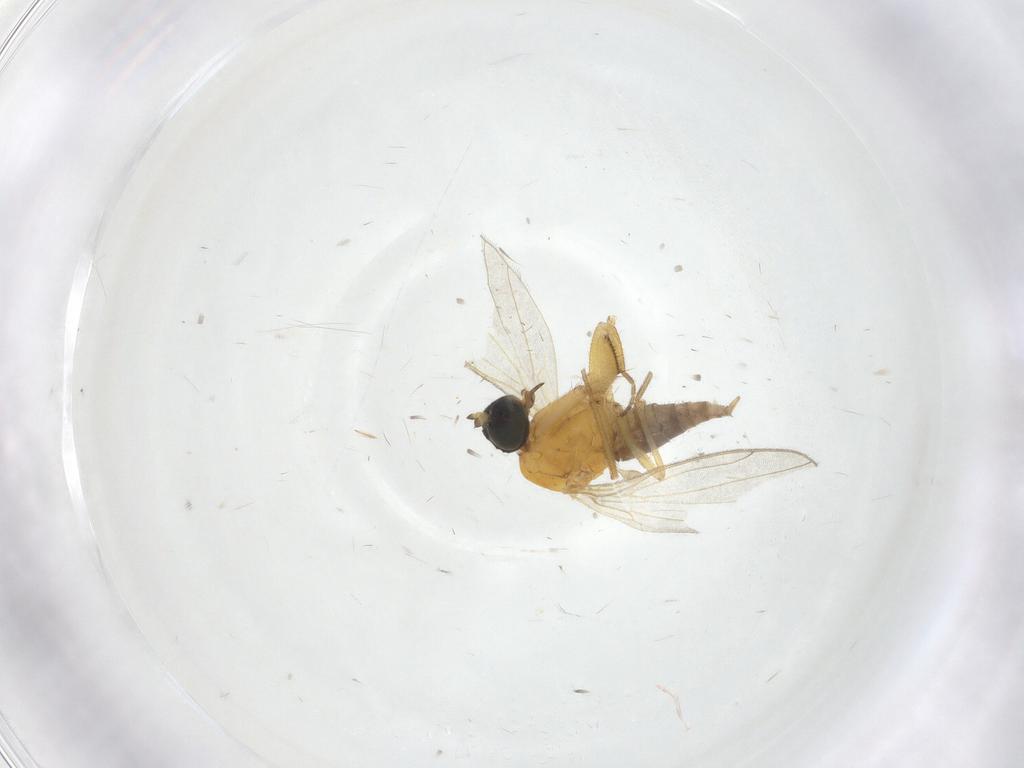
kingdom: Animalia
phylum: Arthropoda
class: Insecta
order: Diptera
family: Empididae
